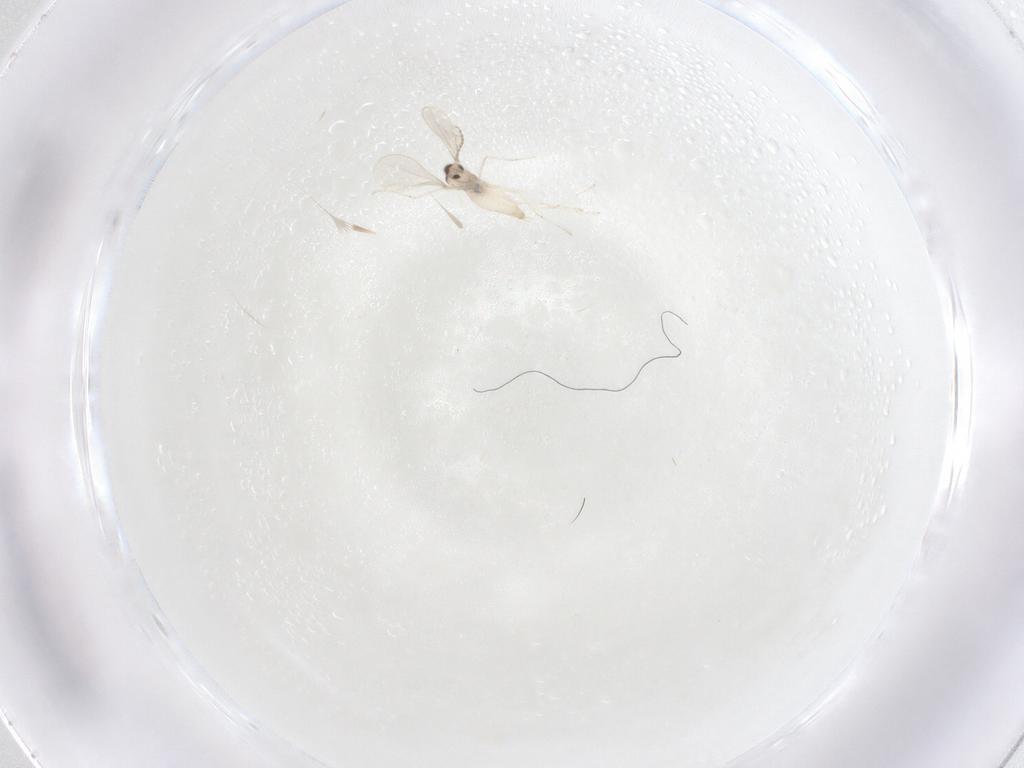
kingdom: Animalia
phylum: Arthropoda
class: Insecta
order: Diptera
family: Cecidomyiidae
